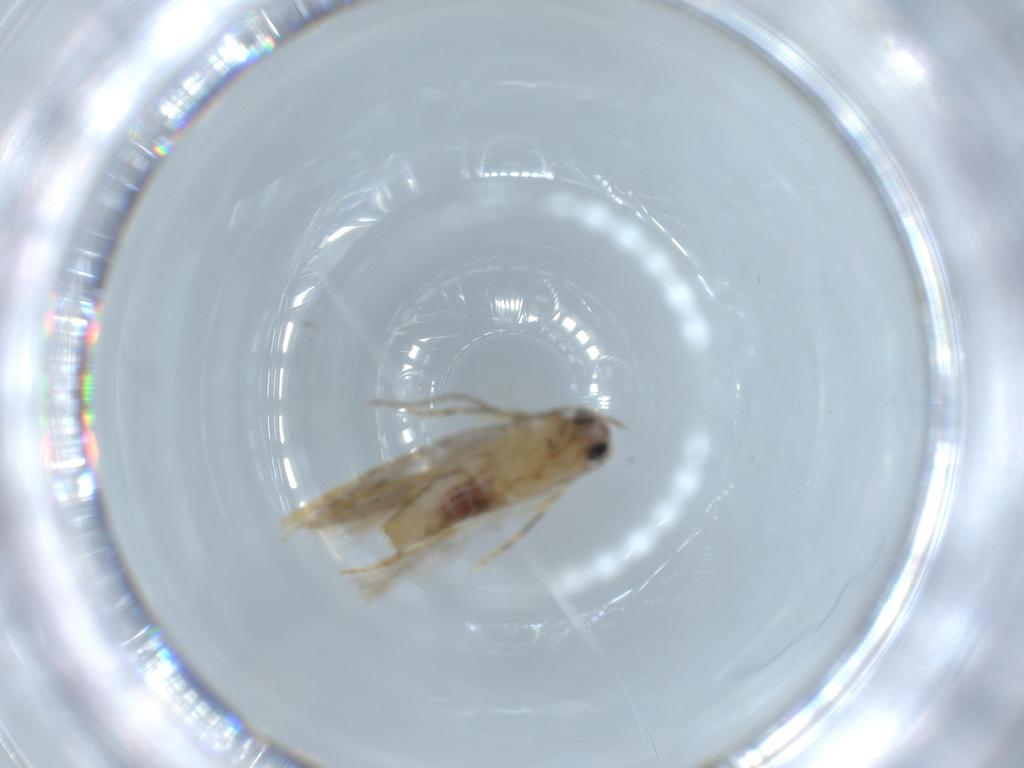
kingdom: Animalia
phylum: Arthropoda
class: Insecta
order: Lepidoptera
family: Tineidae
